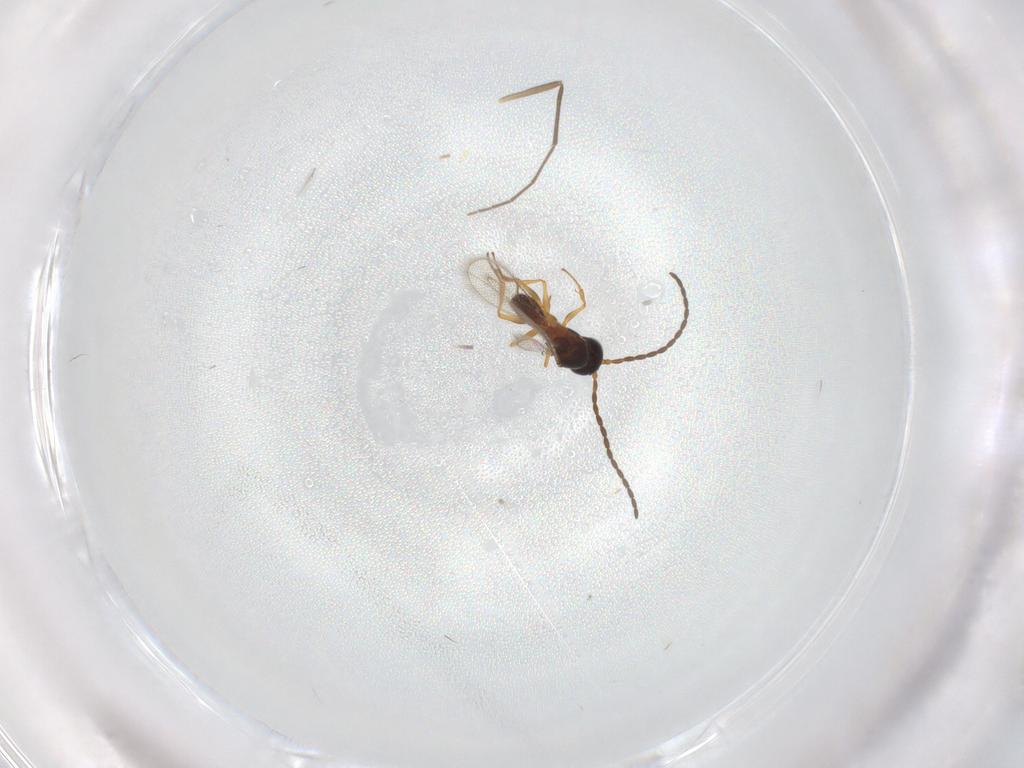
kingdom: Animalia
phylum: Arthropoda
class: Insecta
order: Hymenoptera
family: Figitidae
